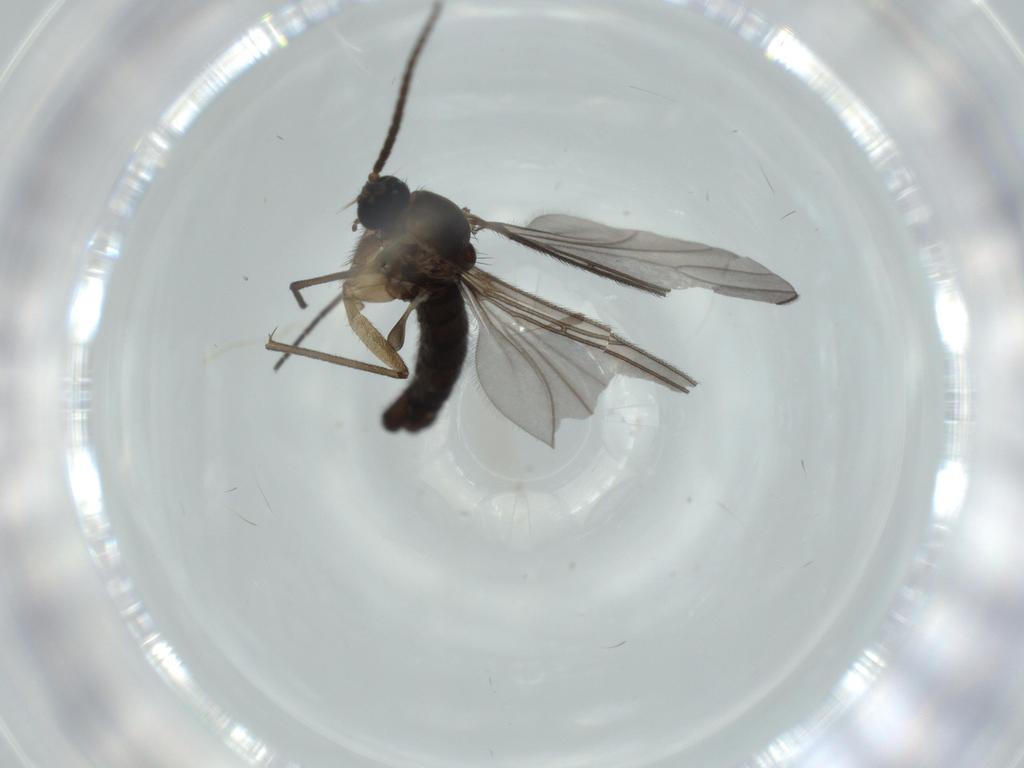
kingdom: Animalia
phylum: Arthropoda
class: Insecta
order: Diptera
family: Sciaridae
